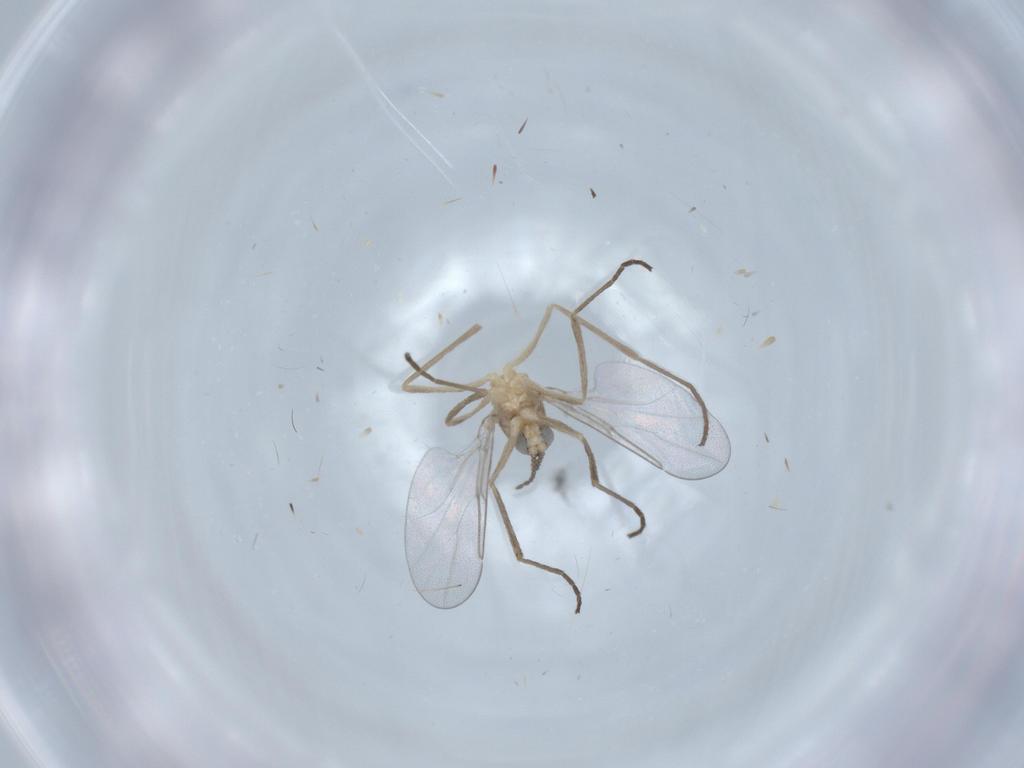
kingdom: Animalia
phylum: Arthropoda
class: Insecta
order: Diptera
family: Cecidomyiidae
